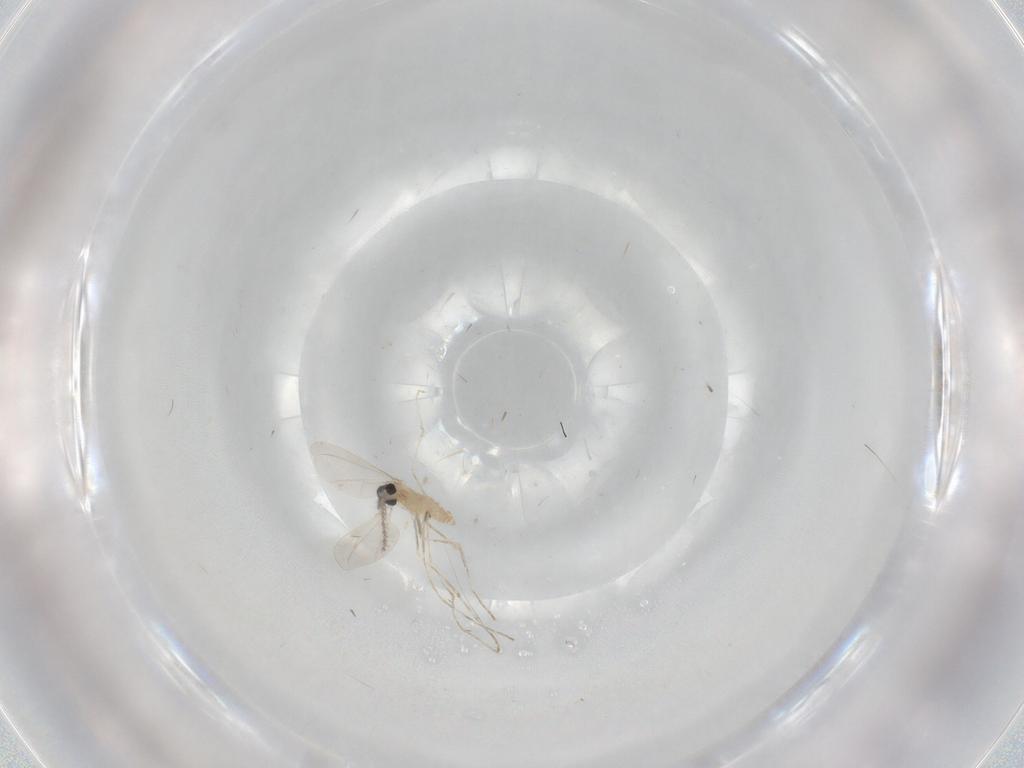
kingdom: Animalia
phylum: Arthropoda
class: Insecta
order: Diptera
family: Cecidomyiidae
